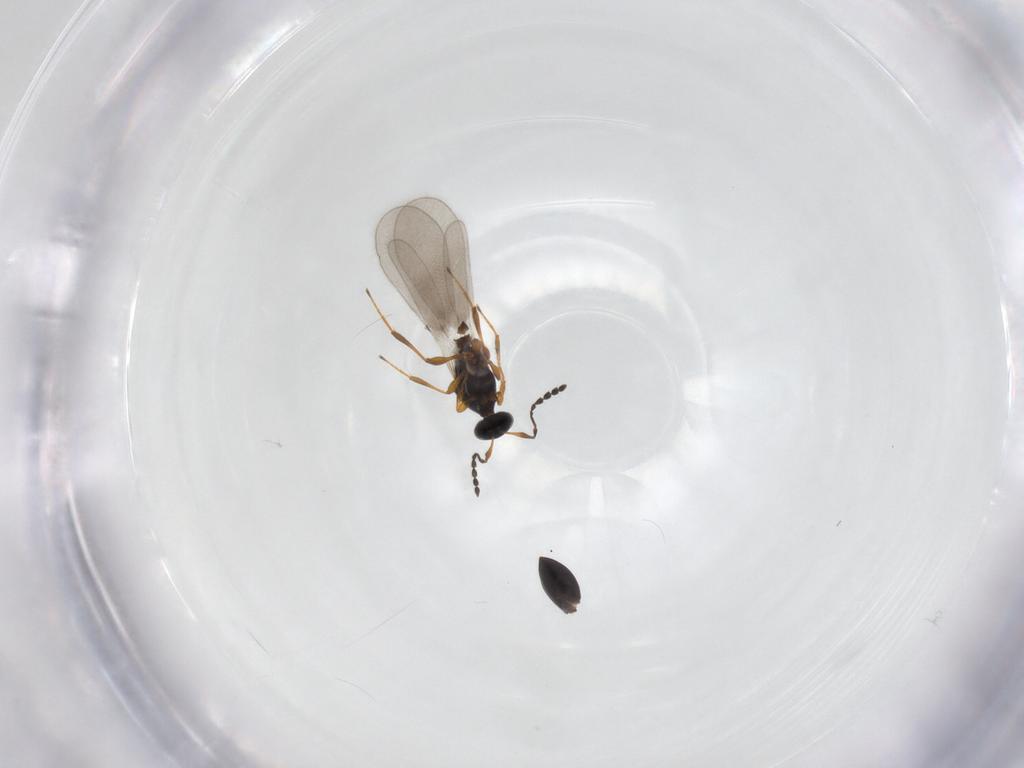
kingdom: Animalia
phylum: Arthropoda
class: Insecta
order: Hymenoptera
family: Platygastridae
